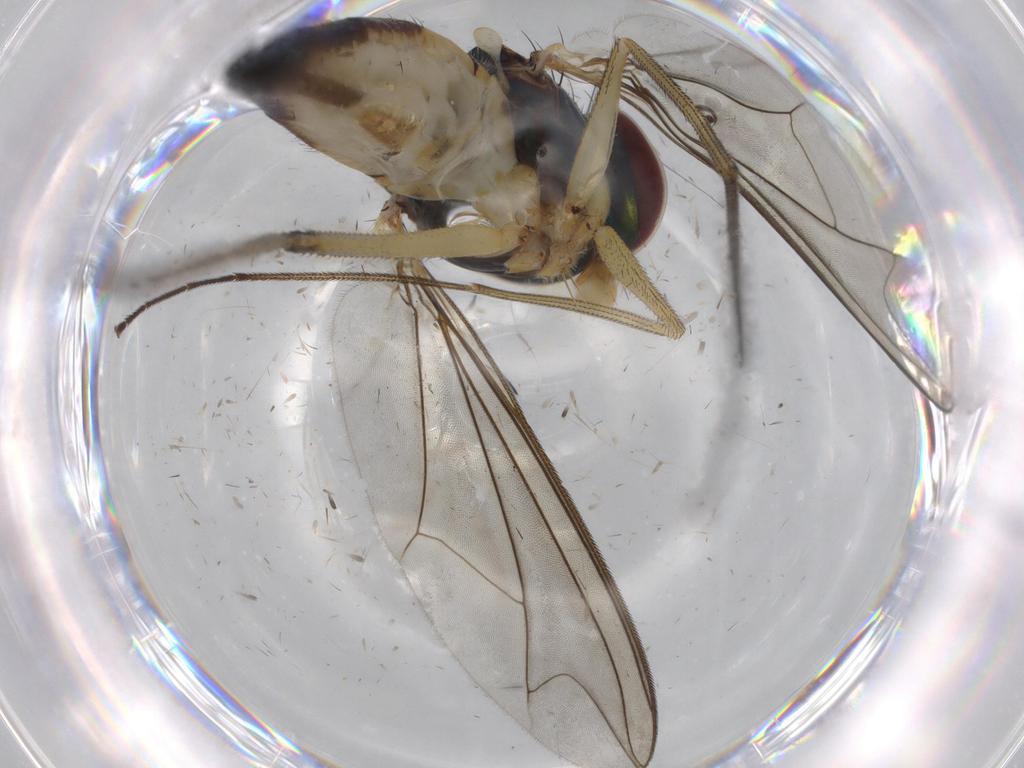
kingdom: Animalia
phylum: Arthropoda
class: Insecta
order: Diptera
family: Dolichopodidae
